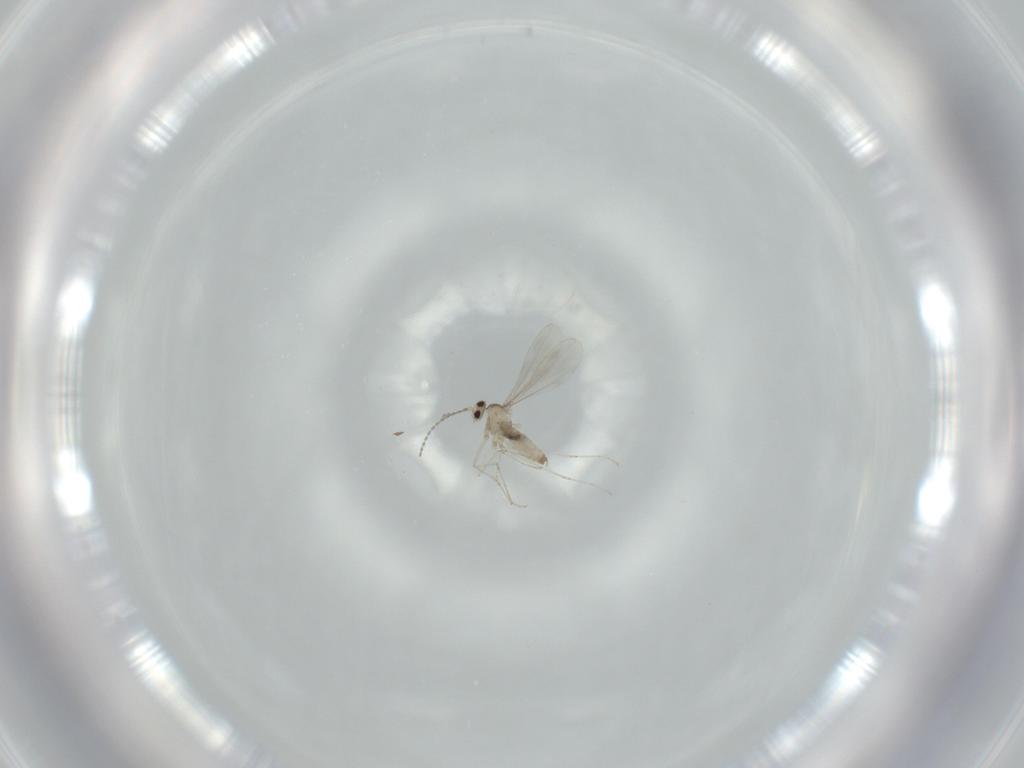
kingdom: Animalia
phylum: Arthropoda
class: Insecta
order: Diptera
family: Cecidomyiidae
